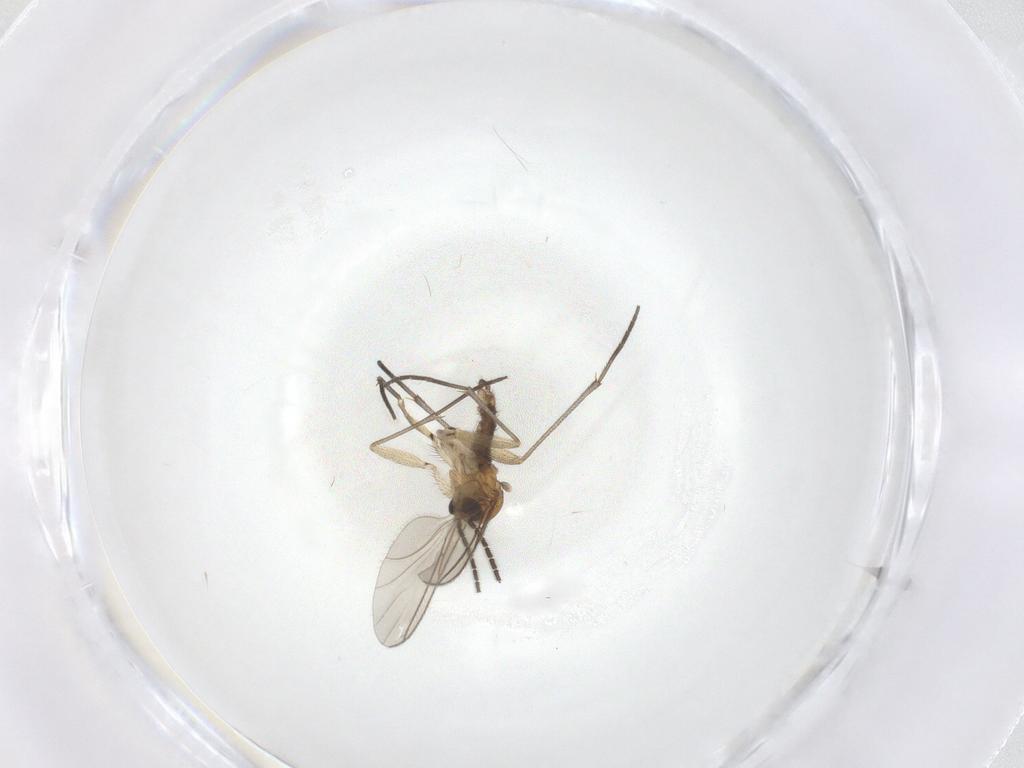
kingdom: Animalia
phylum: Arthropoda
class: Insecta
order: Diptera
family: Sciaridae
